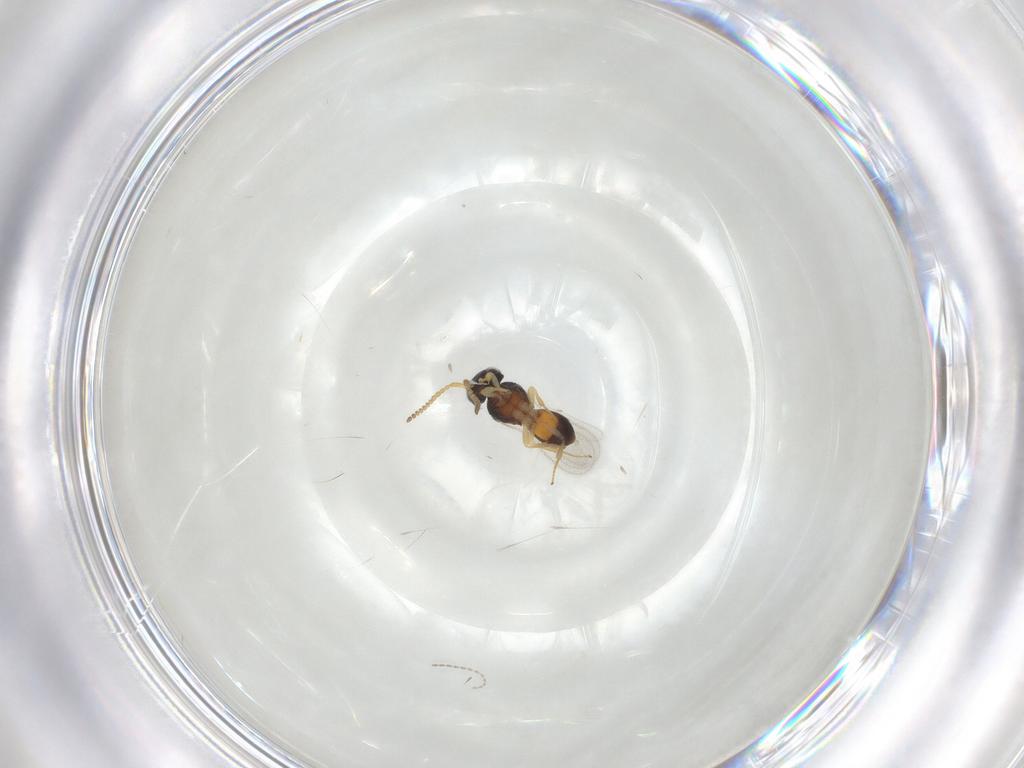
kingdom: Animalia
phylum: Arthropoda
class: Insecta
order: Hymenoptera
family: Scelionidae
